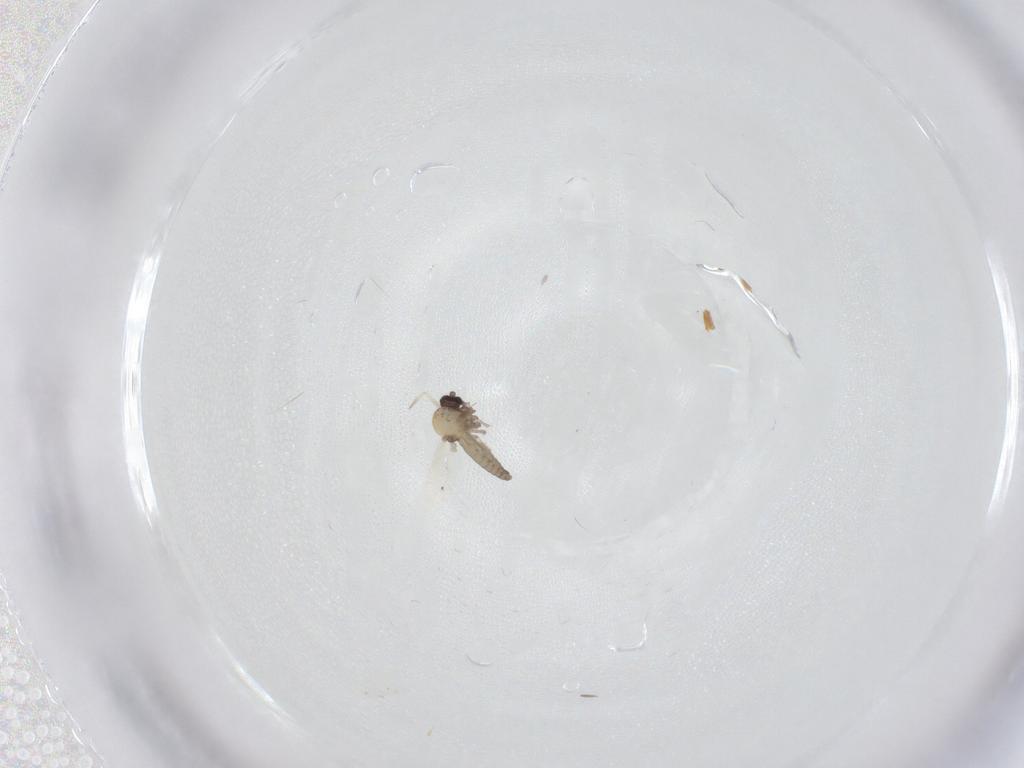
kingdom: Animalia
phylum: Arthropoda
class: Insecta
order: Diptera
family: Ceratopogonidae
